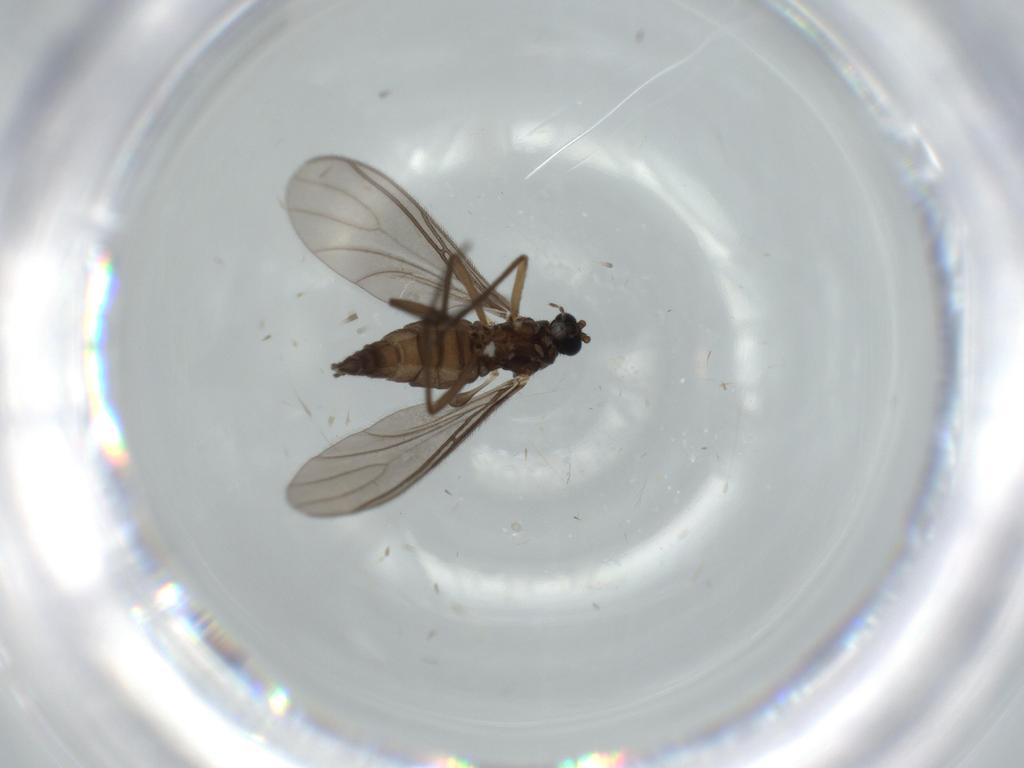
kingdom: Animalia
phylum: Arthropoda
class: Insecta
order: Diptera
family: Sciaridae
